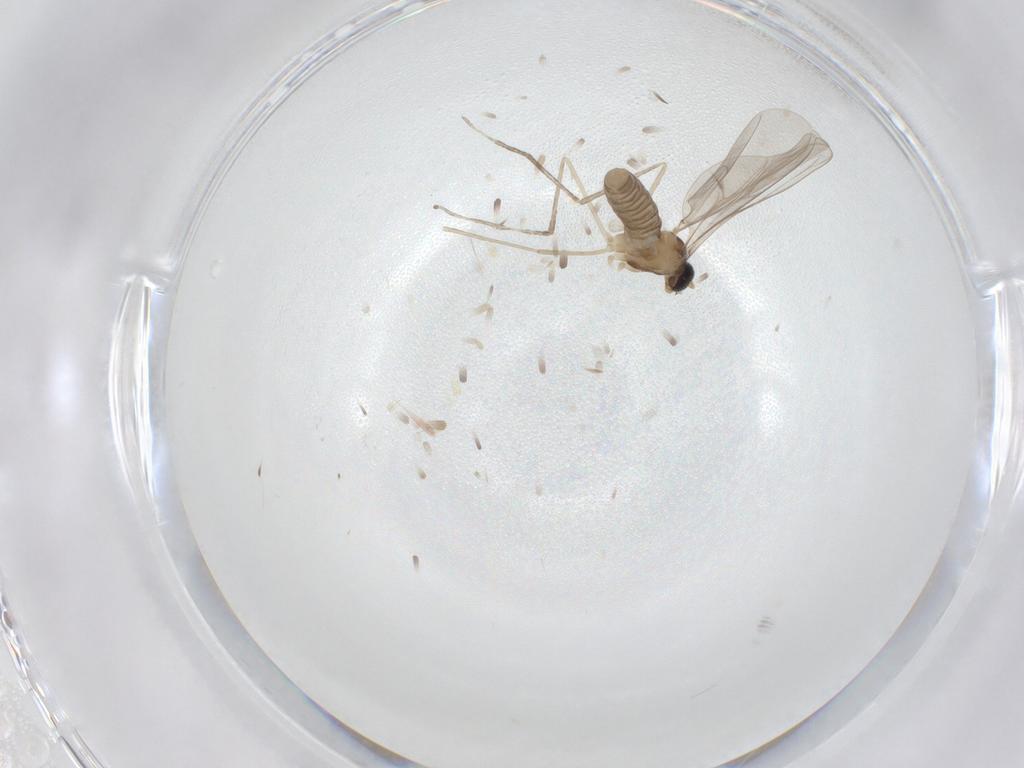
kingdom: Animalia
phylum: Arthropoda
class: Insecta
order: Diptera
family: Cecidomyiidae
